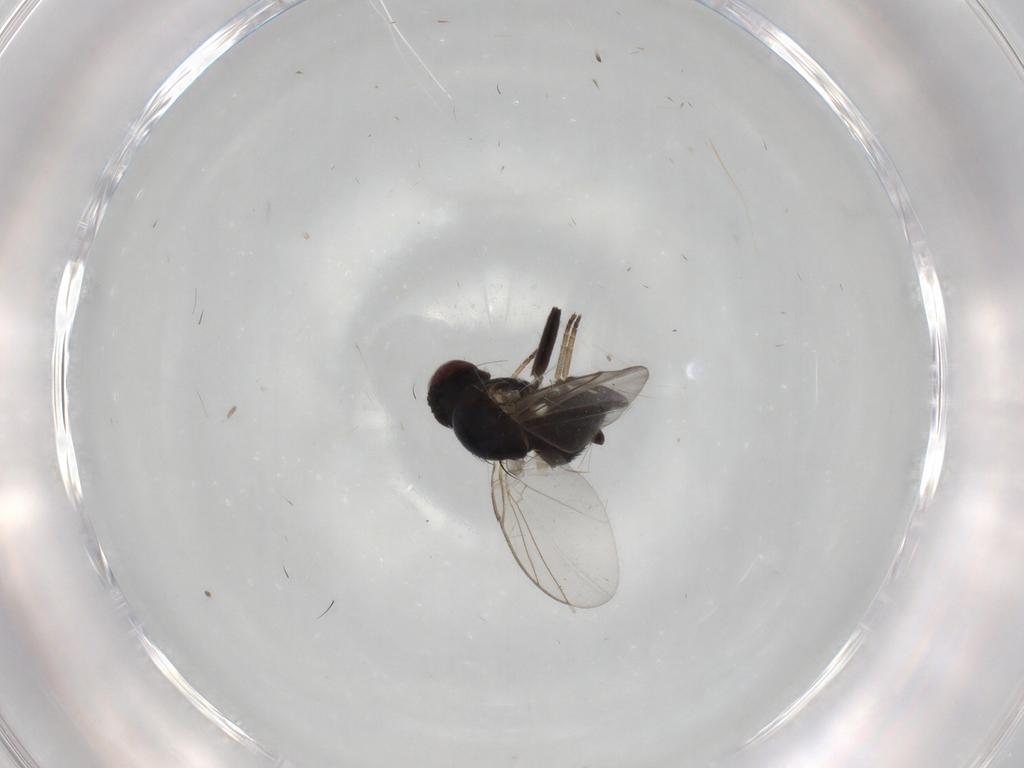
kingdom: Animalia
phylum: Arthropoda
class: Insecta
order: Diptera
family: Agromyzidae
